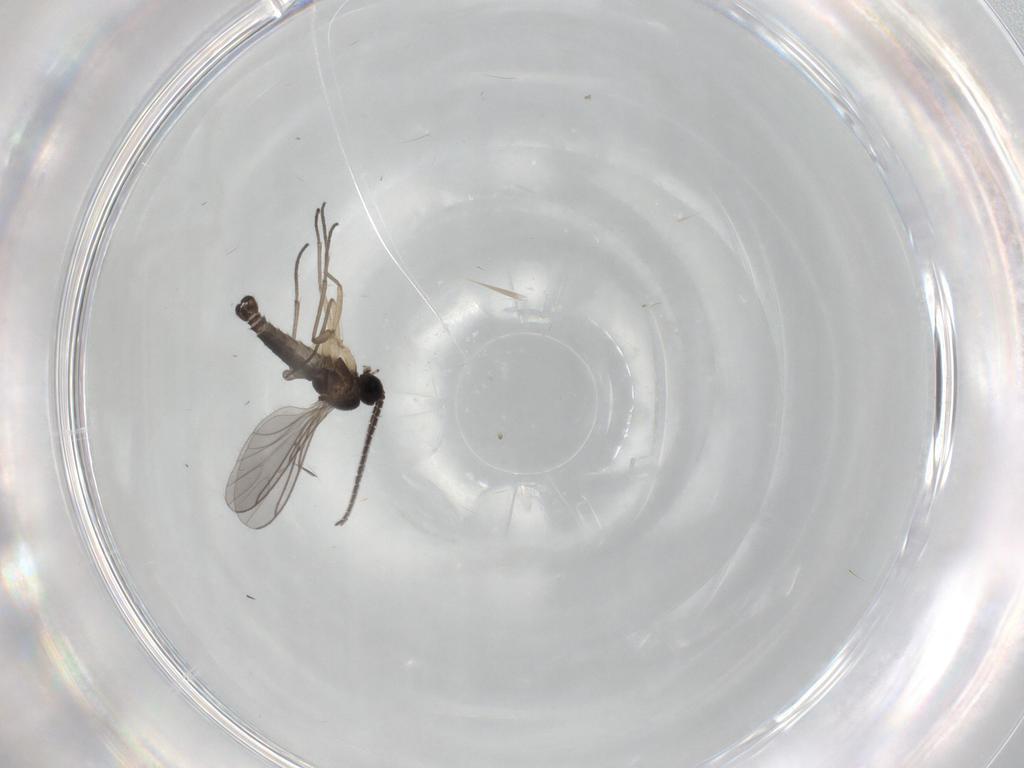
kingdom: Animalia
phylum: Arthropoda
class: Insecta
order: Diptera
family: Sciaridae
